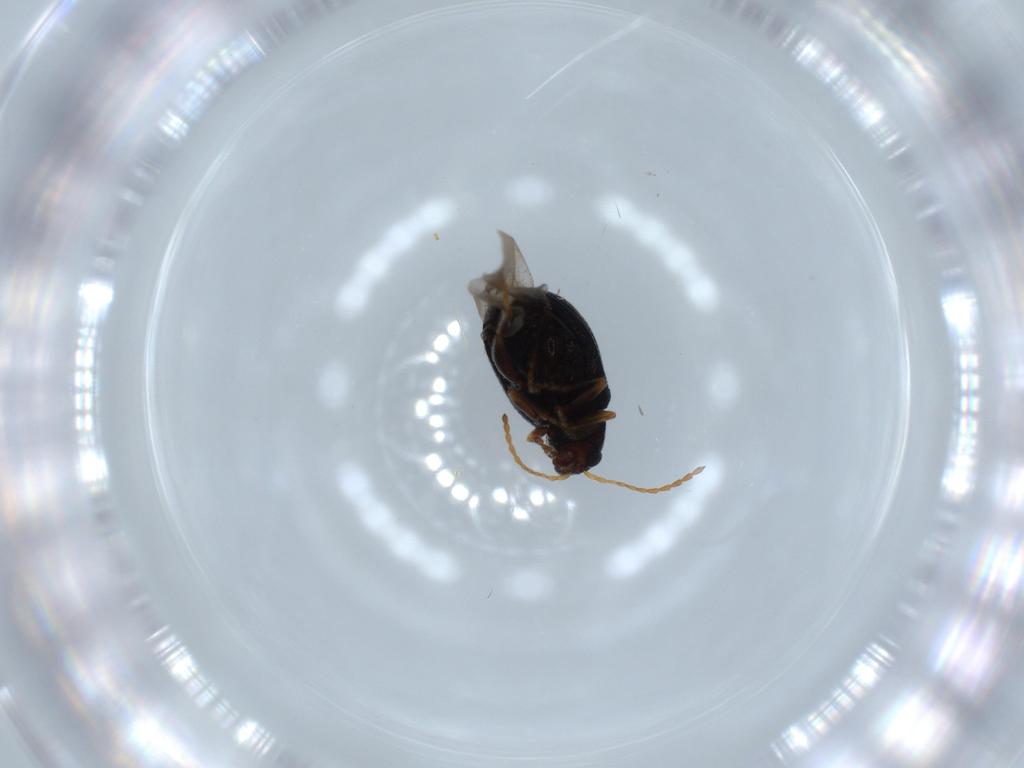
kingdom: Animalia
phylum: Arthropoda
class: Insecta
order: Coleoptera
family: Chrysomelidae
